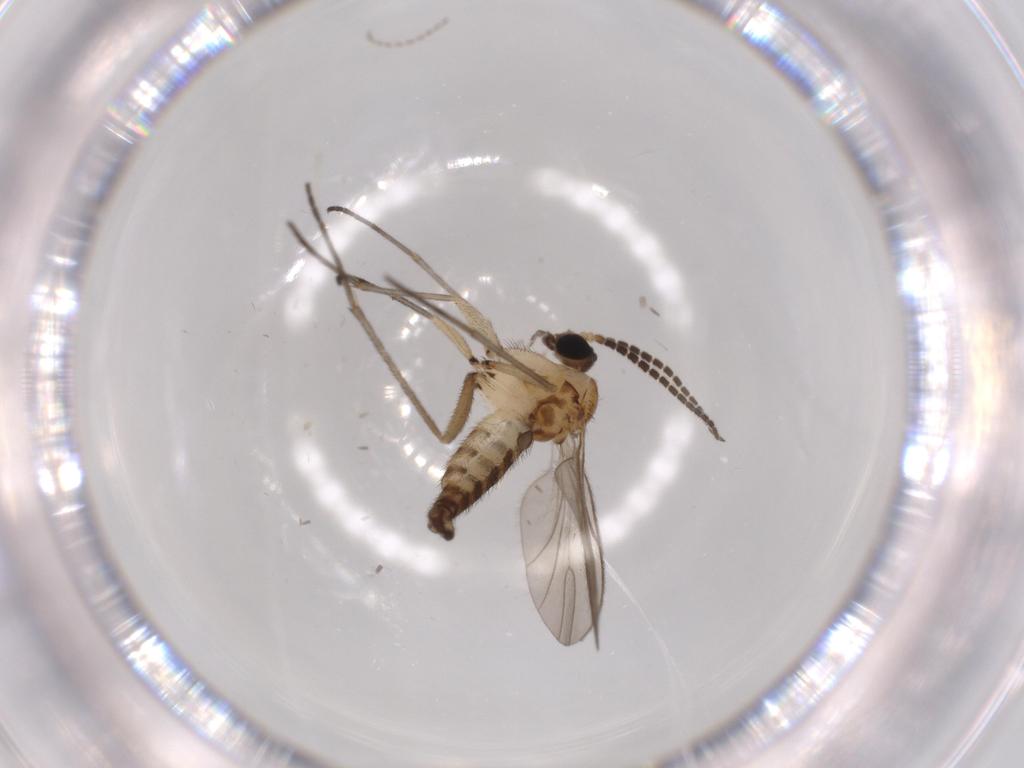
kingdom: Animalia
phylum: Arthropoda
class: Insecta
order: Diptera
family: Sciaridae
